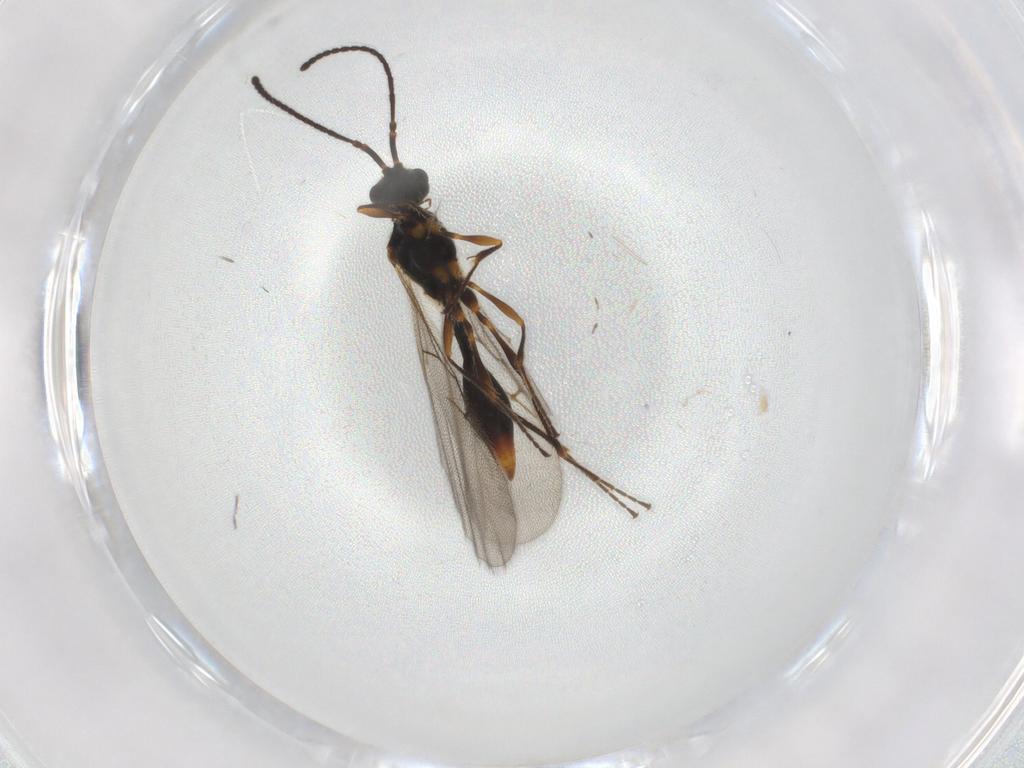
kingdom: Animalia
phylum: Arthropoda
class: Insecta
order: Hymenoptera
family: Diapriidae
